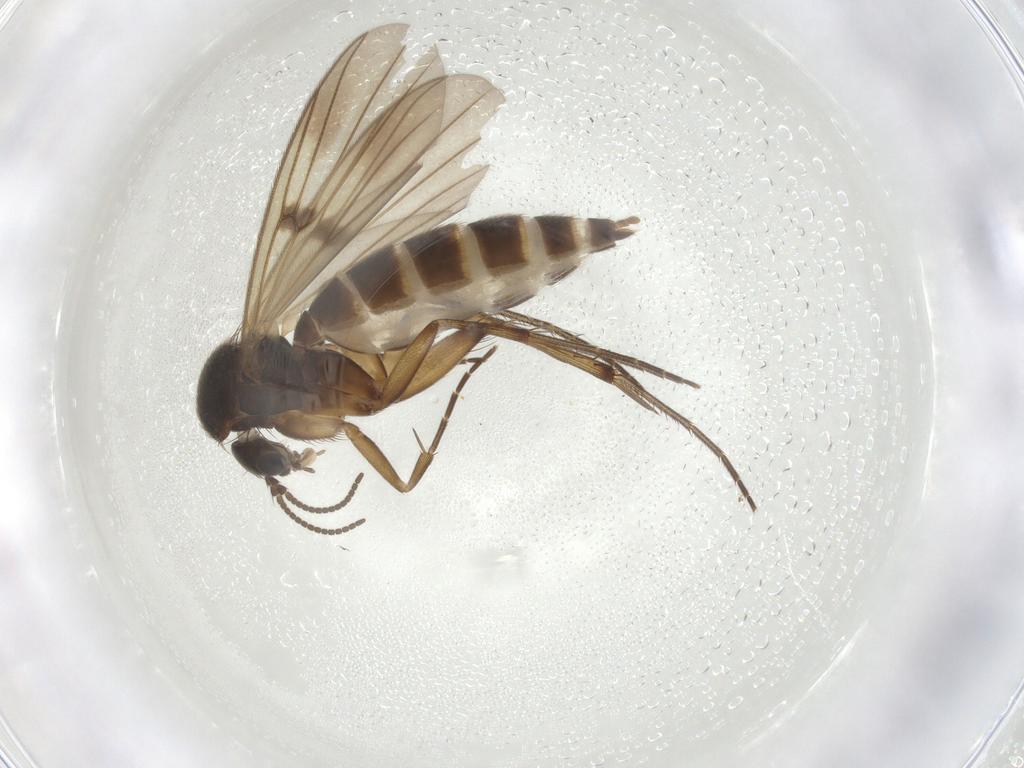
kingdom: Animalia
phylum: Arthropoda
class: Insecta
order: Diptera
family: Mycetophilidae
